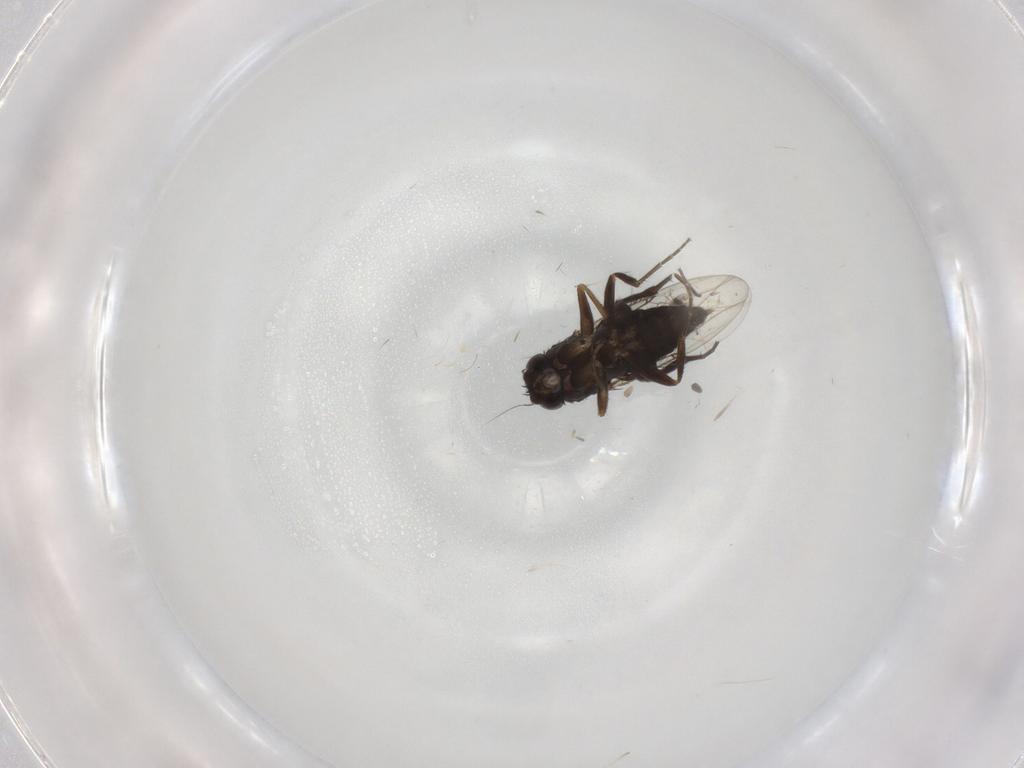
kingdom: Animalia
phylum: Arthropoda
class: Insecta
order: Diptera
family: Phoridae
